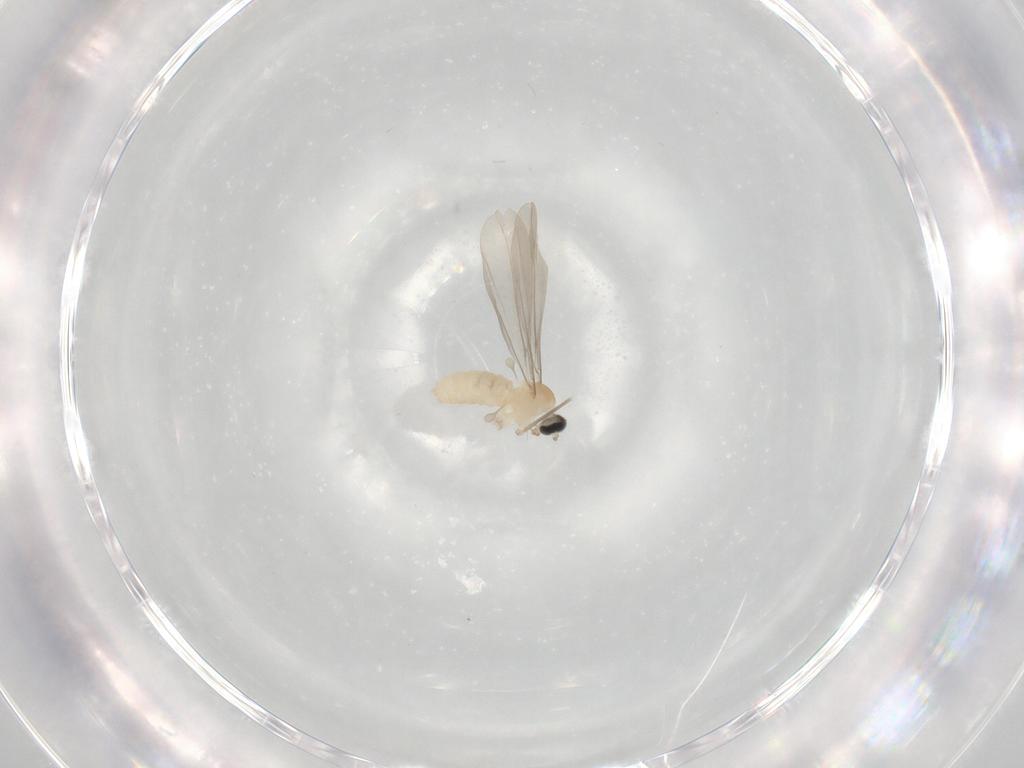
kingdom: Animalia
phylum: Arthropoda
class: Insecta
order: Diptera
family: Cecidomyiidae
